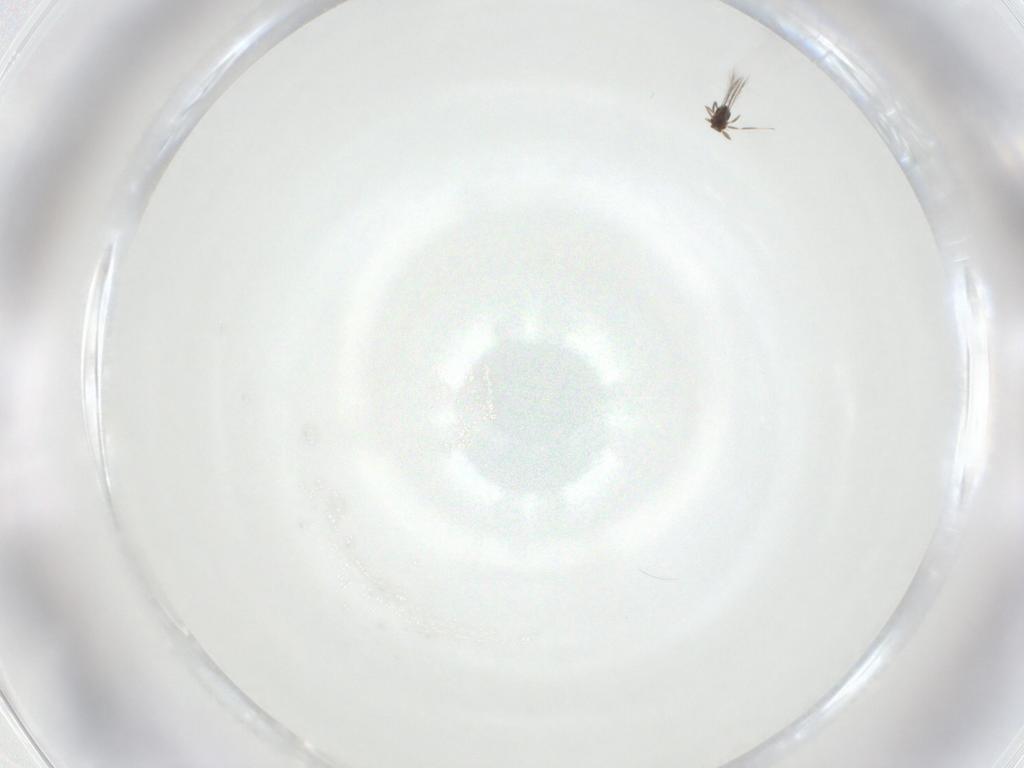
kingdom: Animalia
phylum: Arthropoda
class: Insecta
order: Hymenoptera
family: Mymaridae
